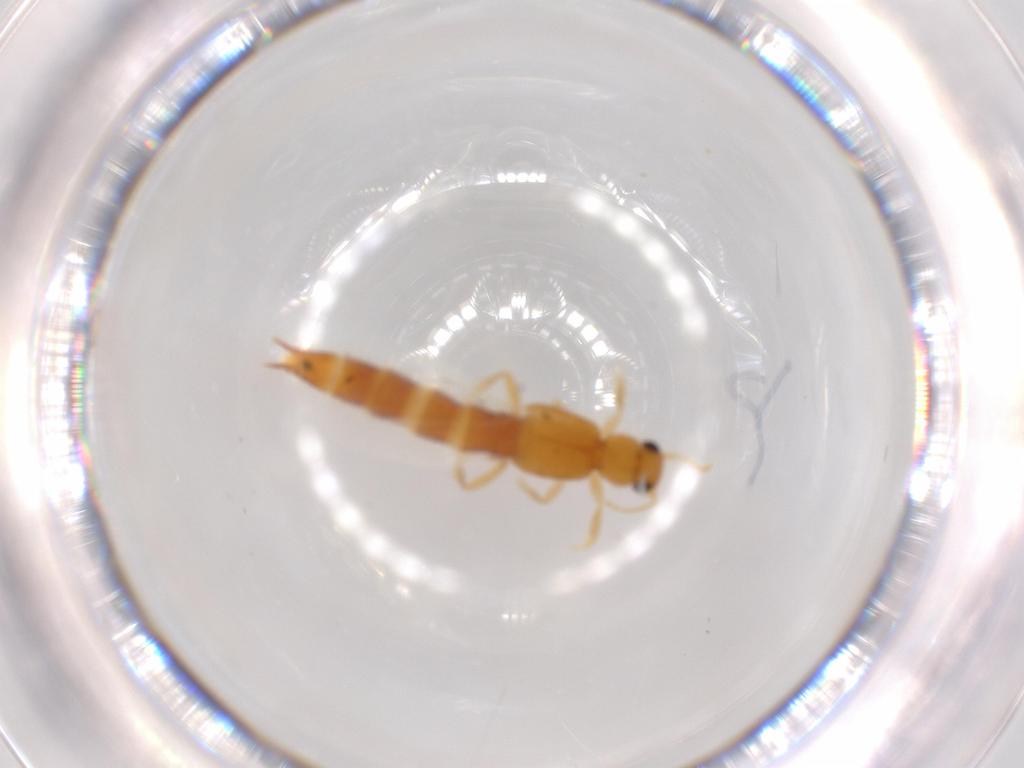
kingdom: Animalia
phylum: Arthropoda
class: Insecta
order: Coleoptera
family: Staphylinidae
